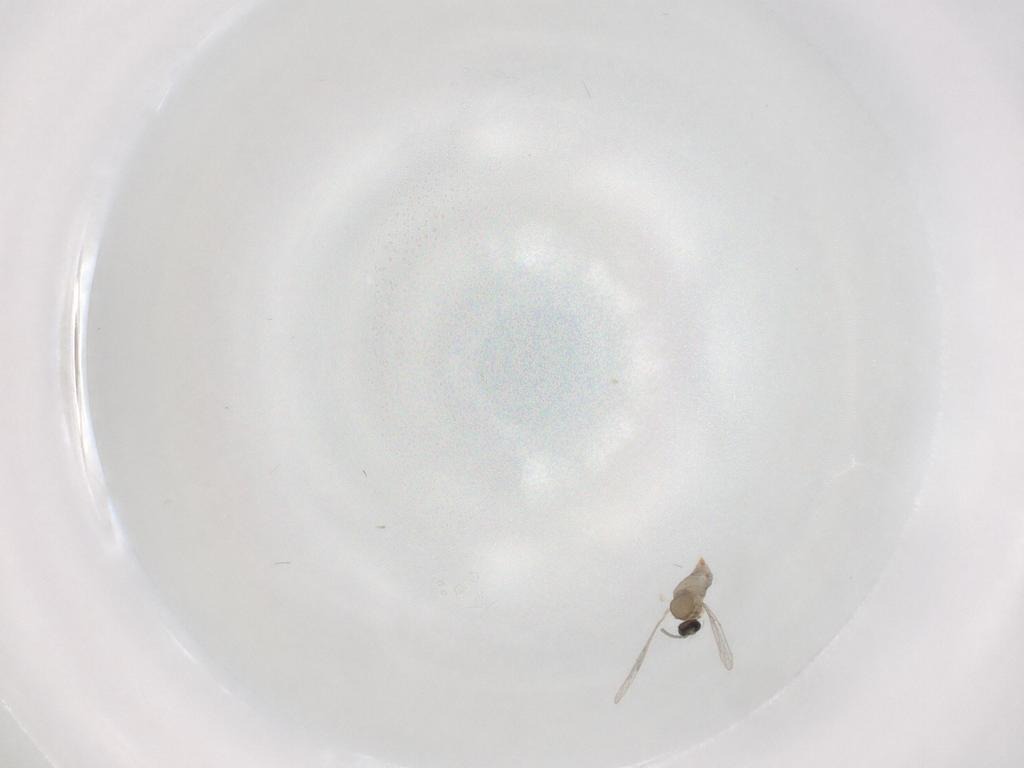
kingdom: Animalia
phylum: Arthropoda
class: Insecta
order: Diptera
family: Cecidomyiidae
